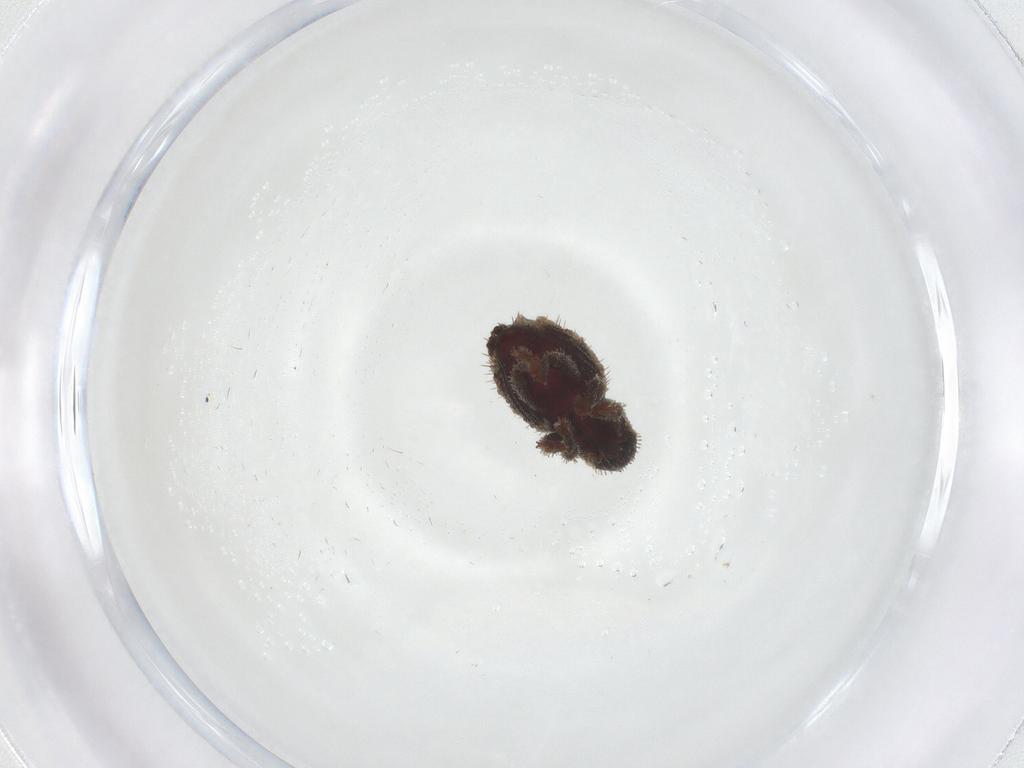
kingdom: Animalia
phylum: Arthropoda
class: Insecta
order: Coleoptera
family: Curculionidae
